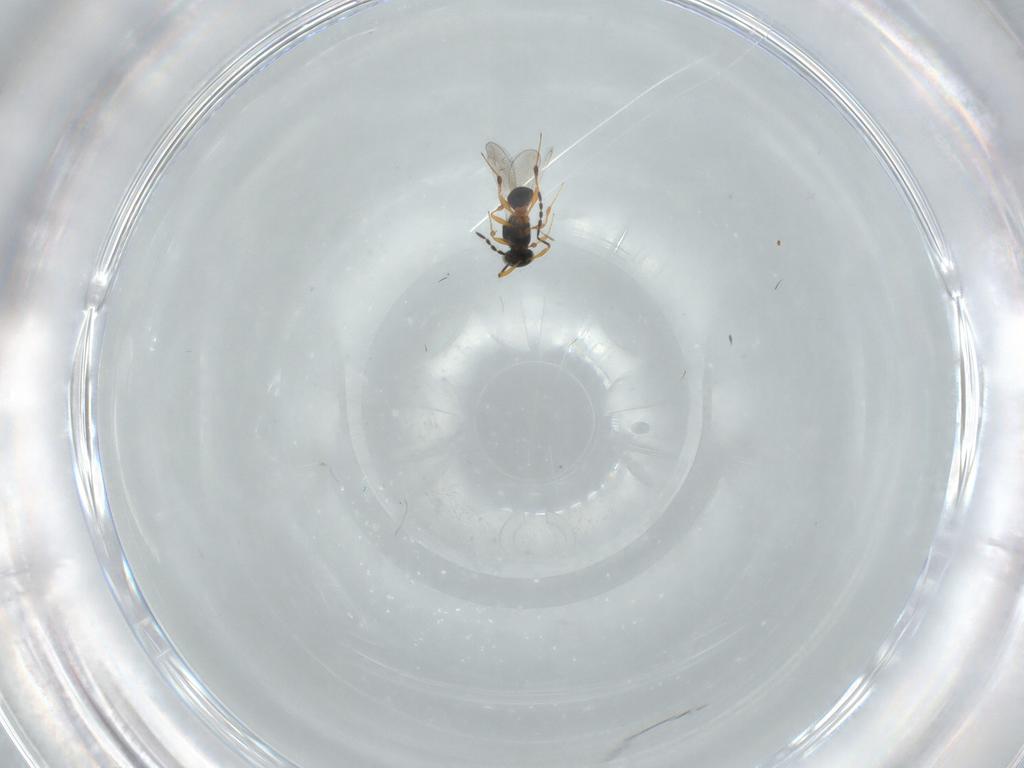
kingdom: Animalia
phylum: Arthropoda
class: Insecta
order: Hymenoptera
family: Platygastridae
